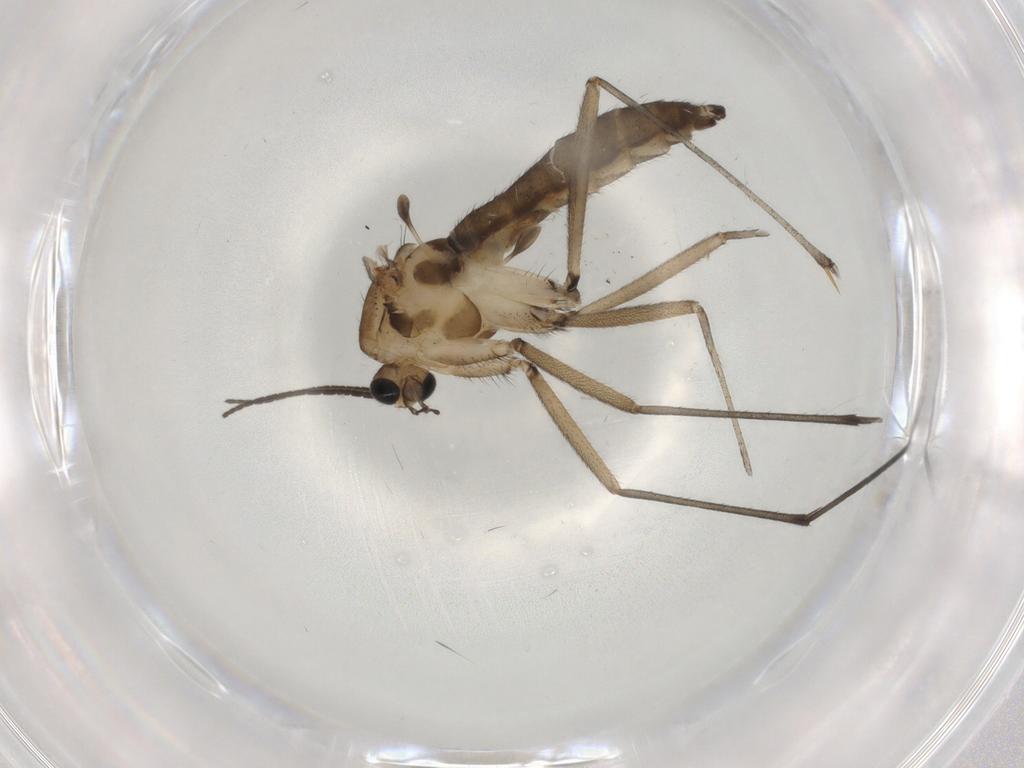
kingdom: Animalia
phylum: Arthropoda
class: Insecta
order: Diptera
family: Sciaridae
